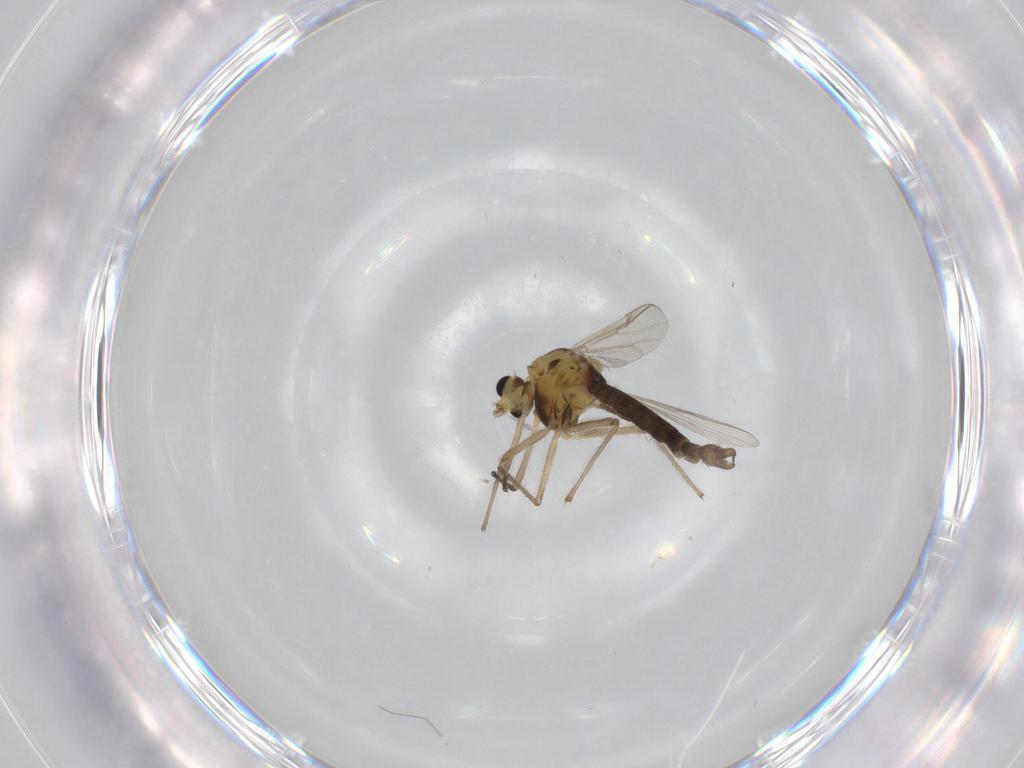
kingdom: Animalia
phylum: Arthropoda
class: Insecta
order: Diptera
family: Chironomidae
